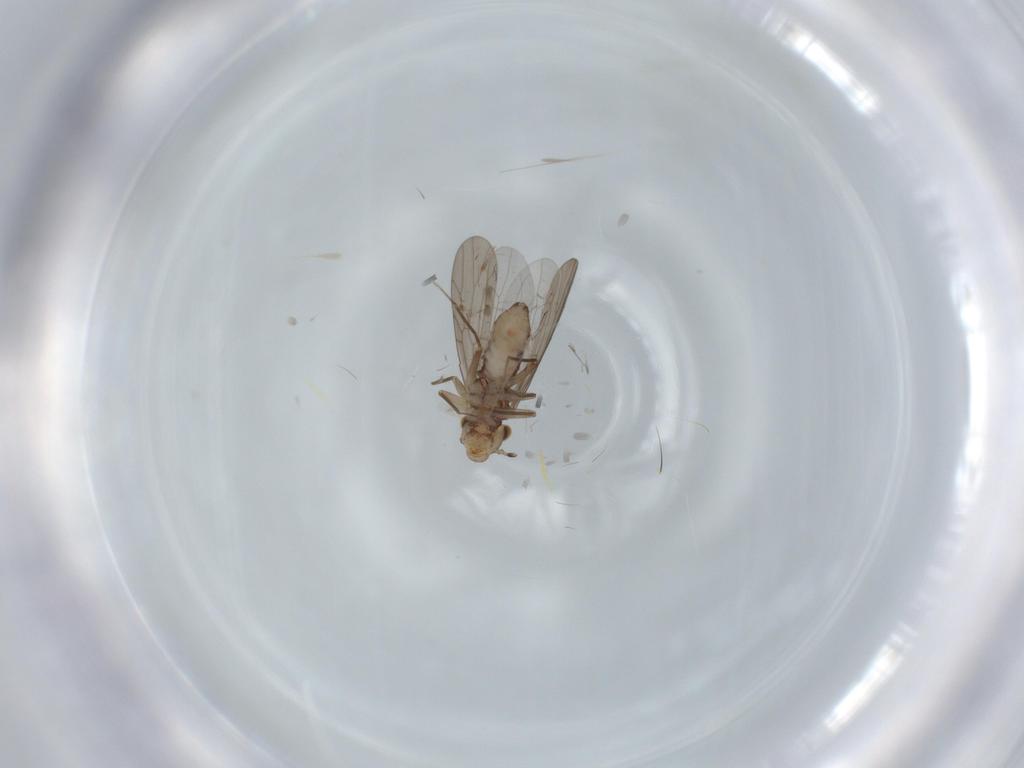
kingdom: Animalia
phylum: Arthropoda
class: Insecta
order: Psocodea
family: Lepidopsocidae
